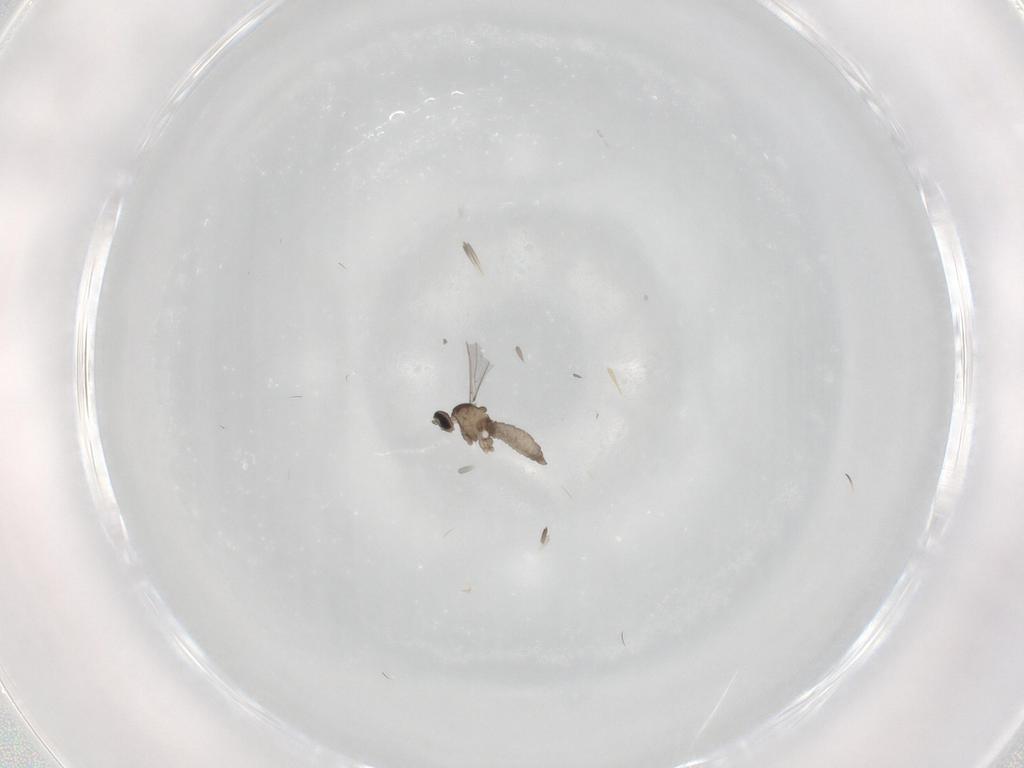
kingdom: Animalia
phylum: Arthropoda
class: Insecta
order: Diptera
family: Cecidomyiidae
